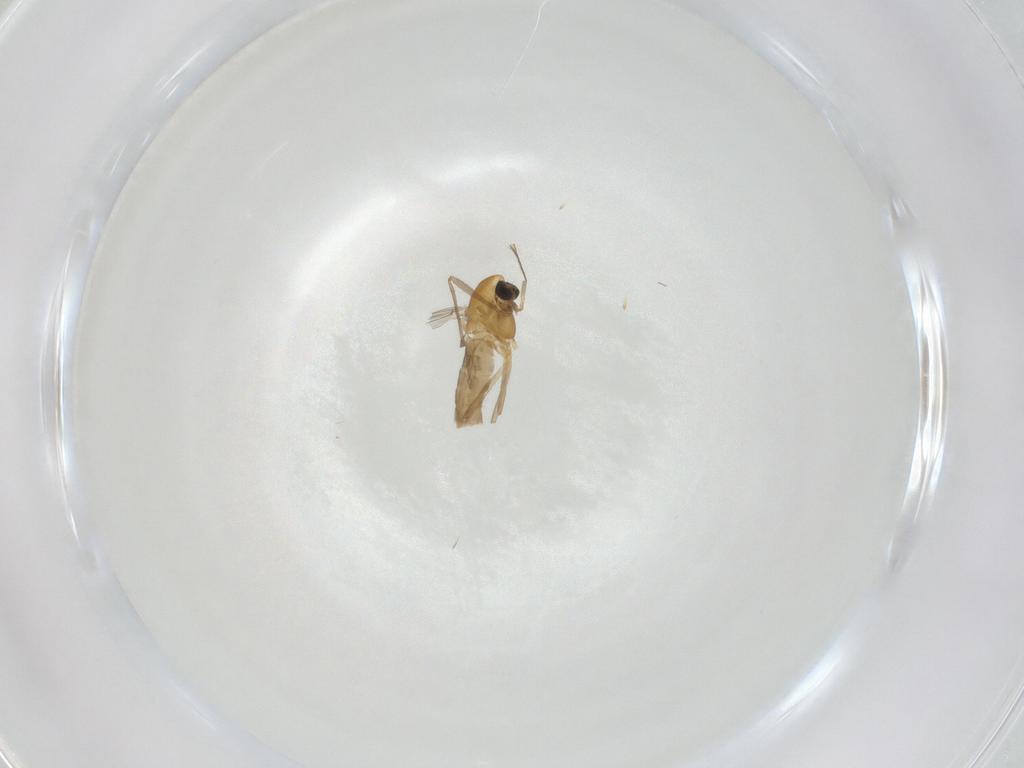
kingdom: Animalia
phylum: Arthropoda
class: Insecta
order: Diptera
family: Chironomidae
